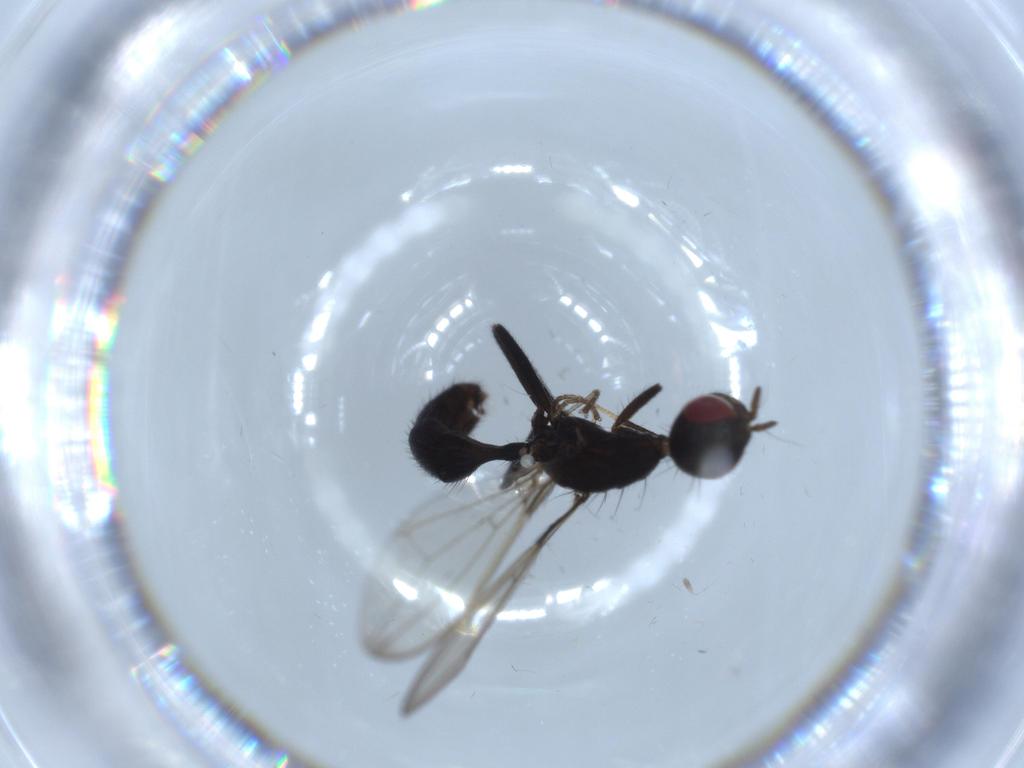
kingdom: Animalia
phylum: Arthropoda
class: Insecta
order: Diptera
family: Richardiidae
